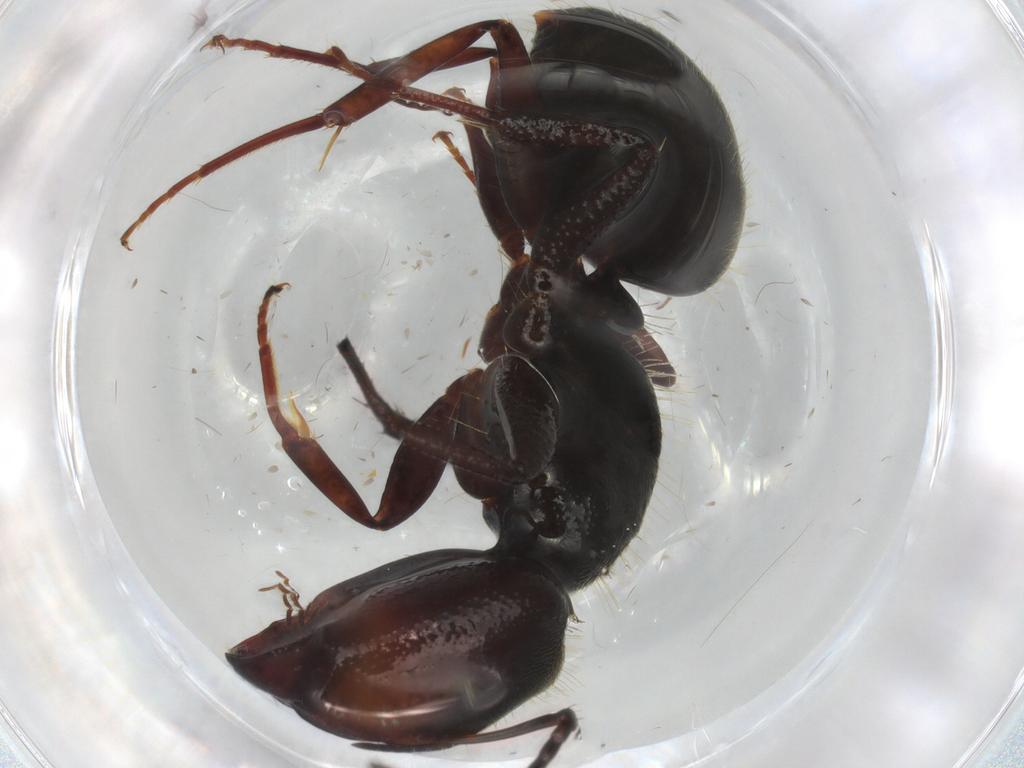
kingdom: Animalia
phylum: Arthropoda
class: Insecta
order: Hymenoptera
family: Formicidae
